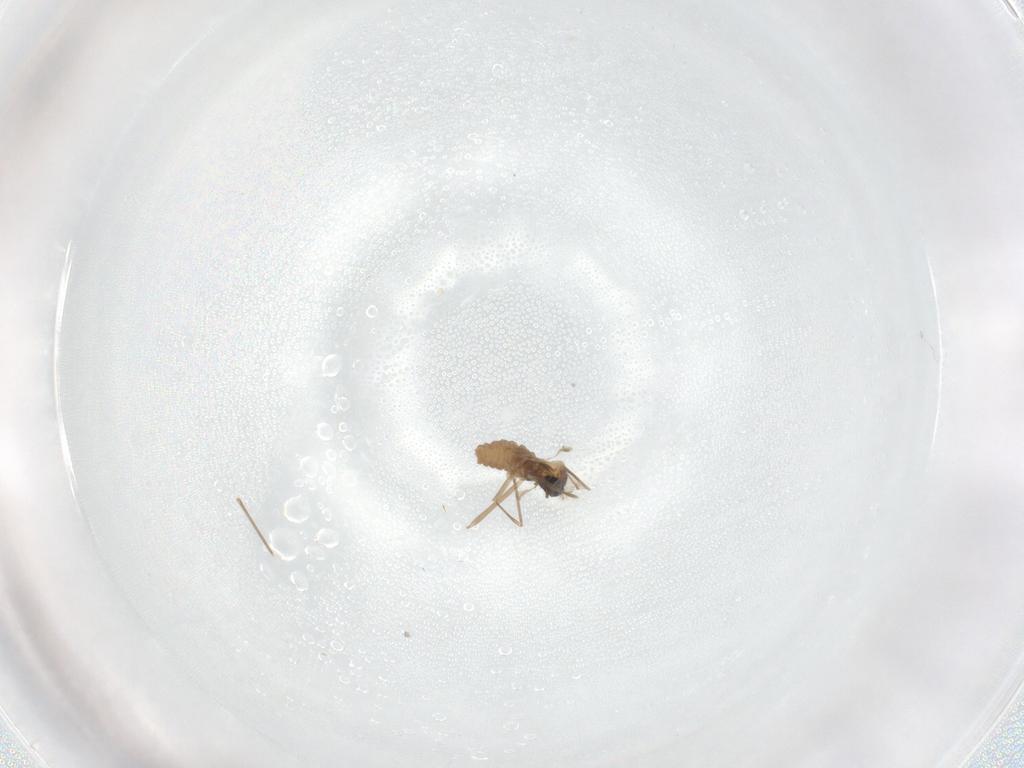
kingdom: Animalia
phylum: Arthropoda
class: Insecta
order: Diptera
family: Cecidomyiidae
